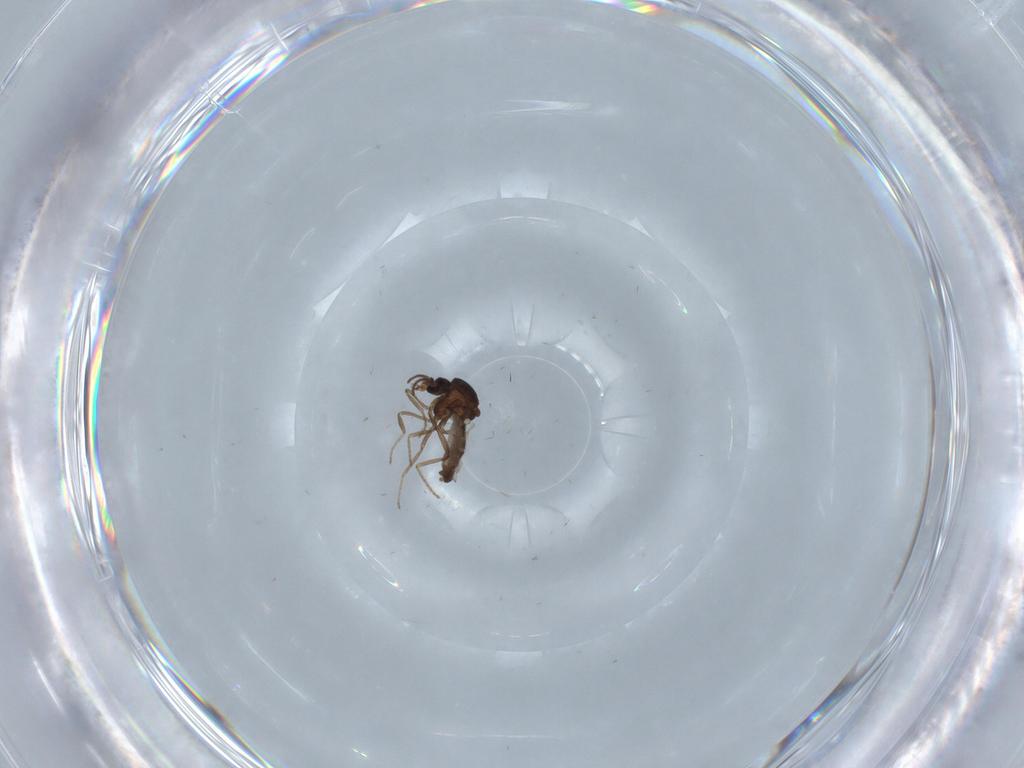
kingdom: Animalia
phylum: Arthropoda
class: Insecta
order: Diptera
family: Ceratopogonidae
